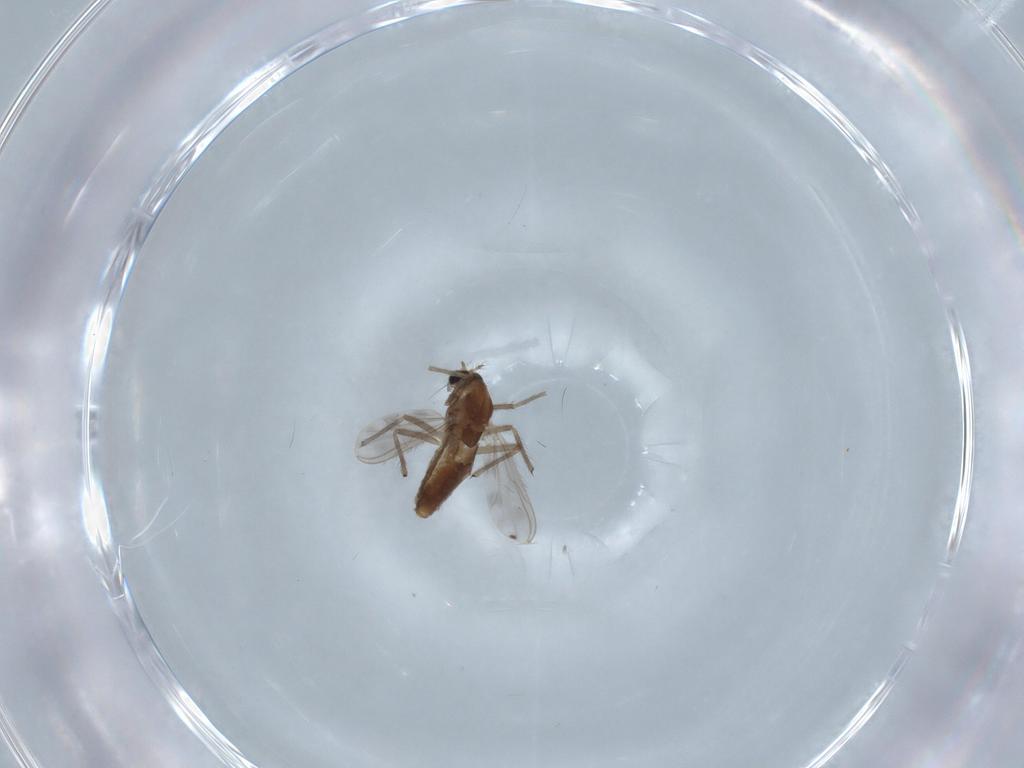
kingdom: Animalia
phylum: Arthropoda
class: Insecta
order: Diptera
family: Chironomidae
